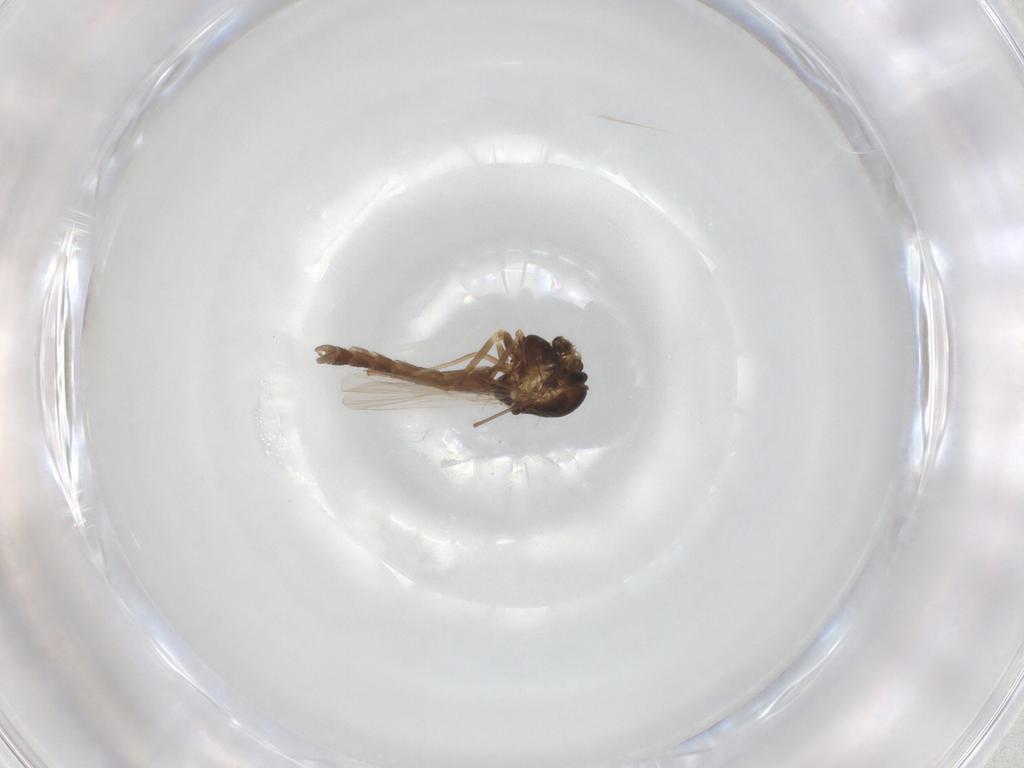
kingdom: Animalia
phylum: Arthropoda
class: Insecta
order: Diptera
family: Chironomidae
